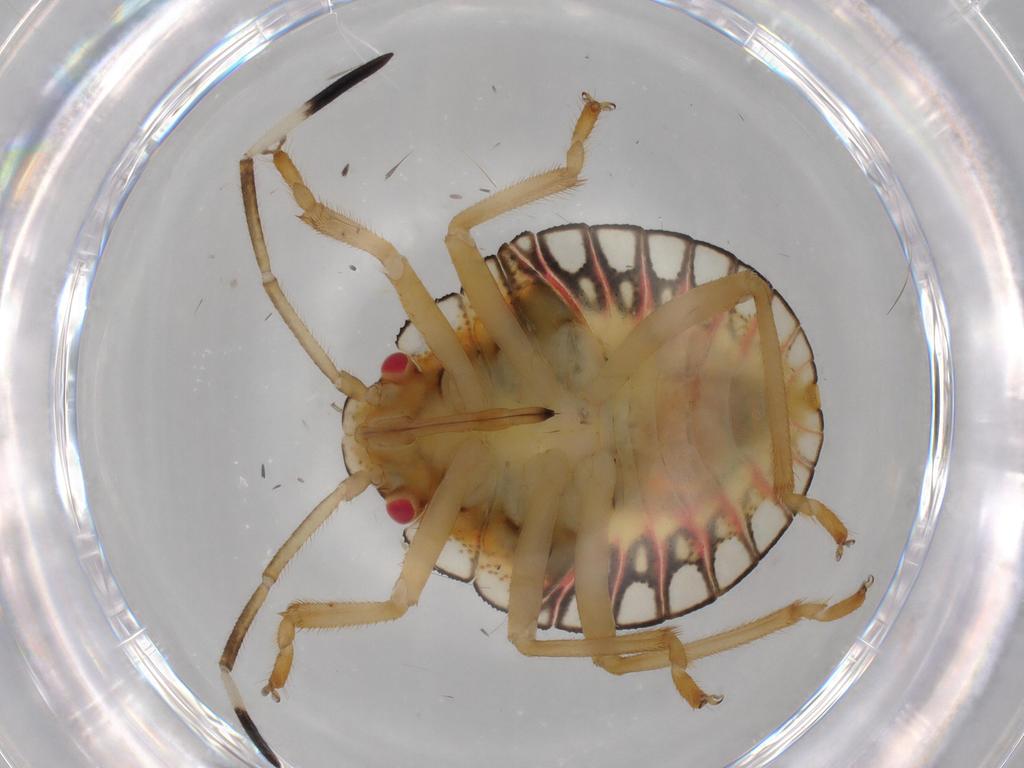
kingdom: Animalia
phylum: Arthropoda
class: Insecta
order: Hemiptera
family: Pentatomidae
